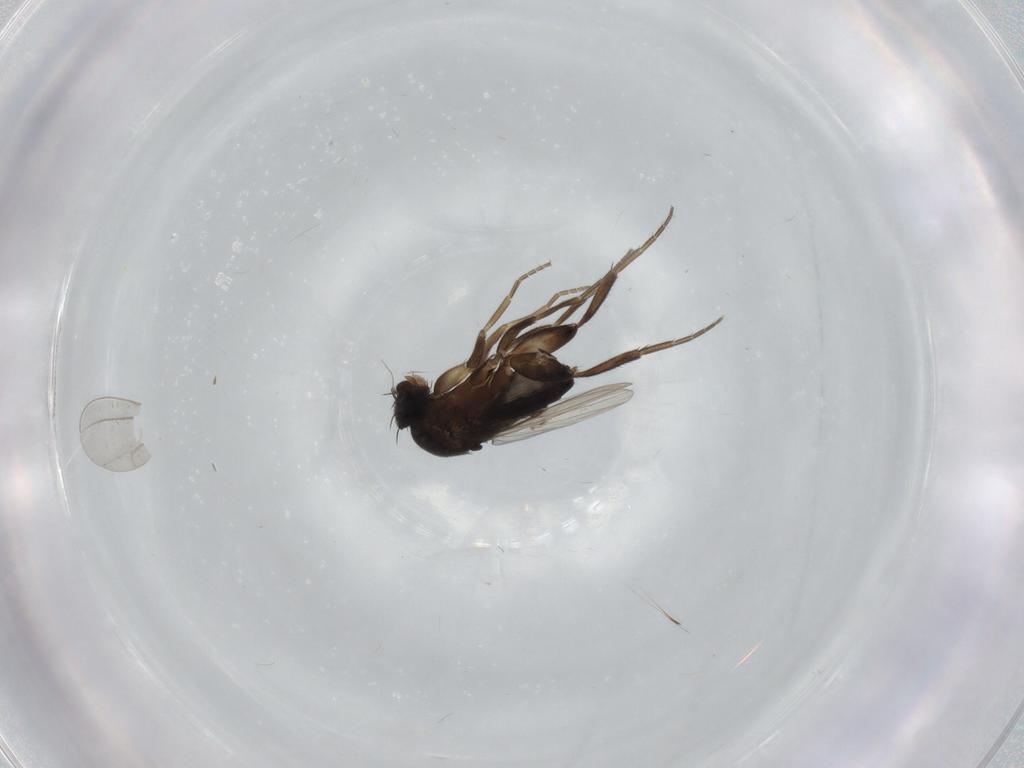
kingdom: Animalia
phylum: Arthropoda
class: Insecta
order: Diptera
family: Phoridae
